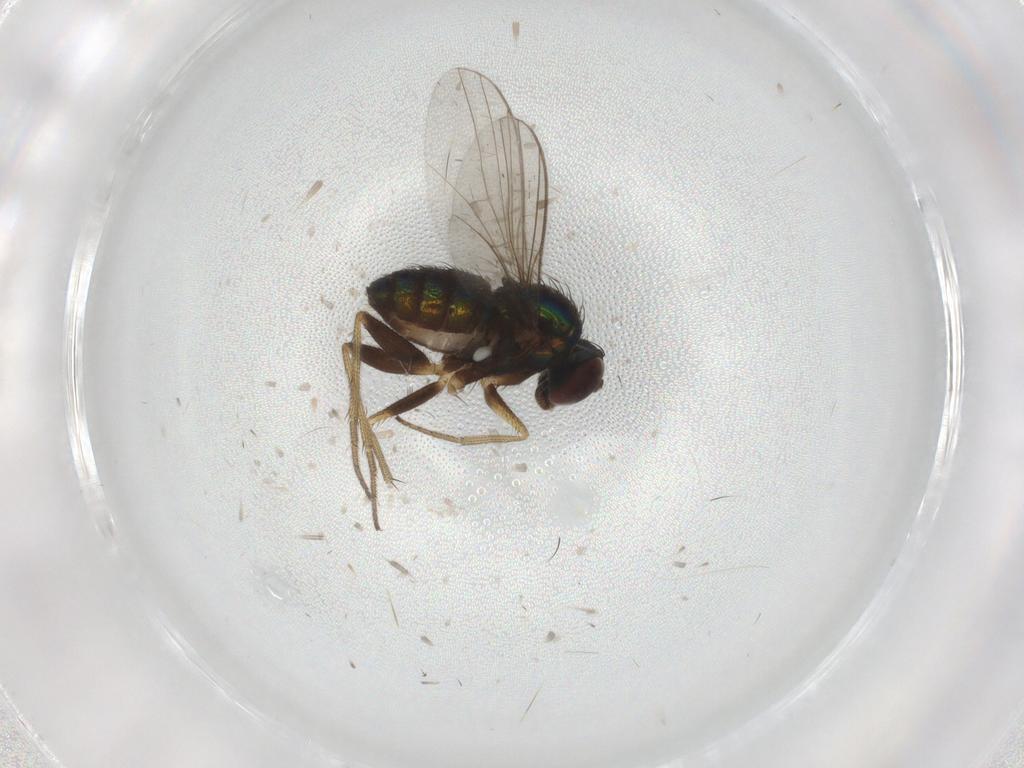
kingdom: Animalia
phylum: Arthropoda
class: Insecta
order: Diptera
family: Dolichopodidae
